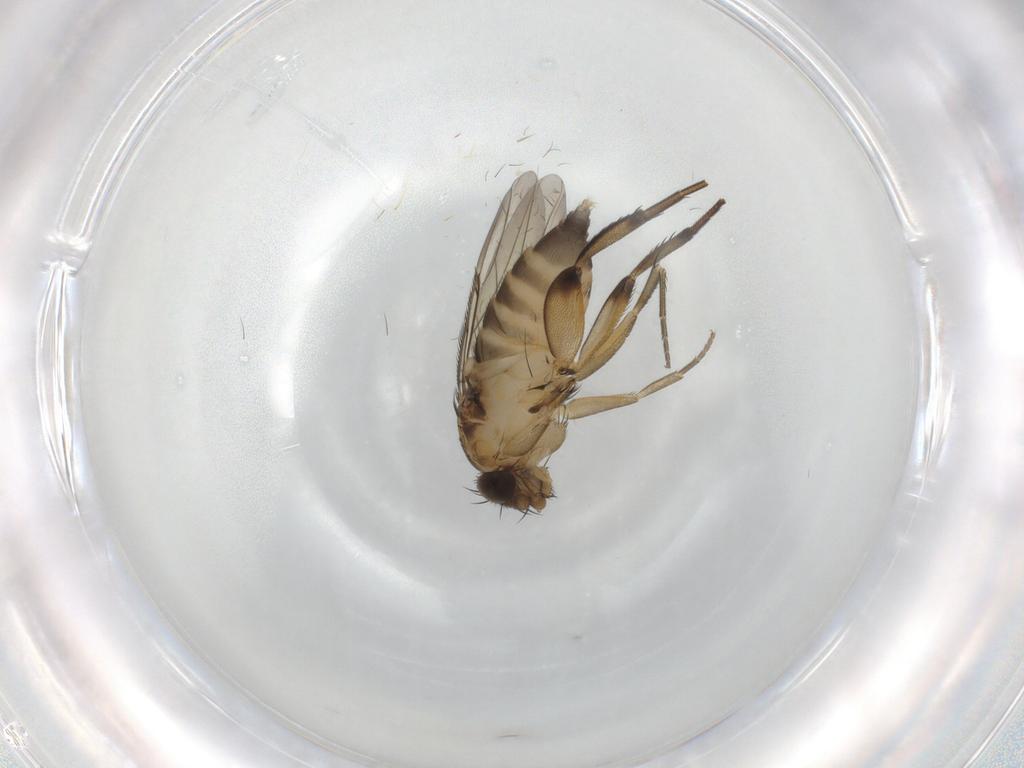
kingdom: Animalia
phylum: Arthropoda
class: Insecta
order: Diptera
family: Phoridae
